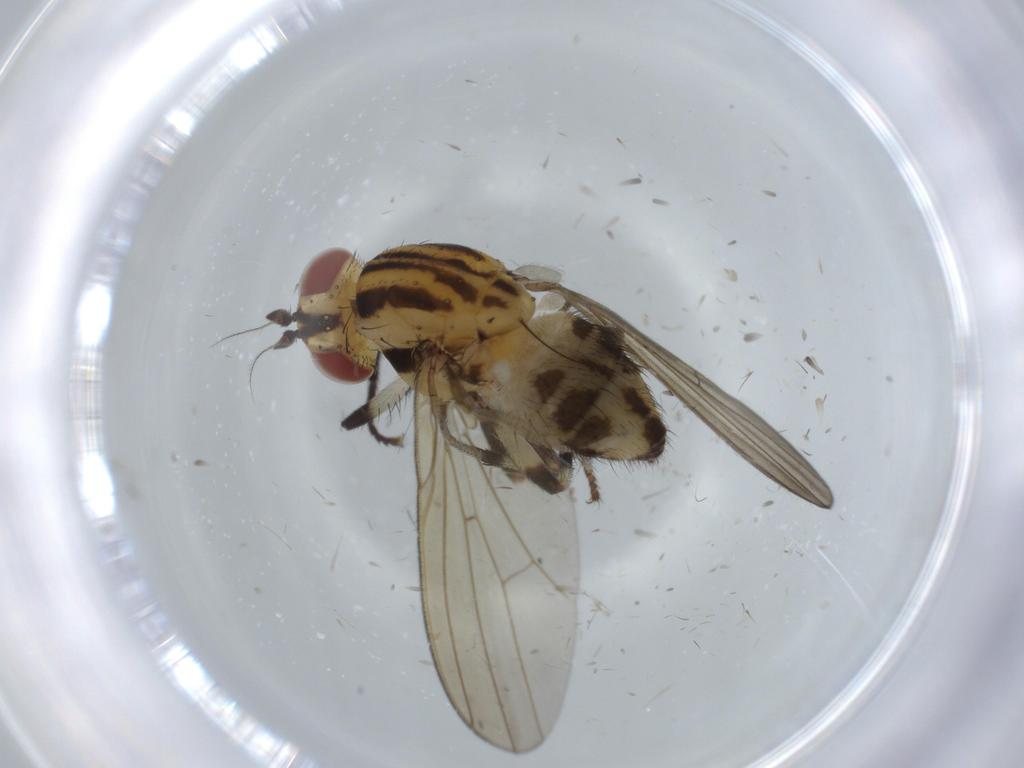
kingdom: Animalia
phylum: Arthropoda
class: Insecta
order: Diptera
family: Lauxaniidae
